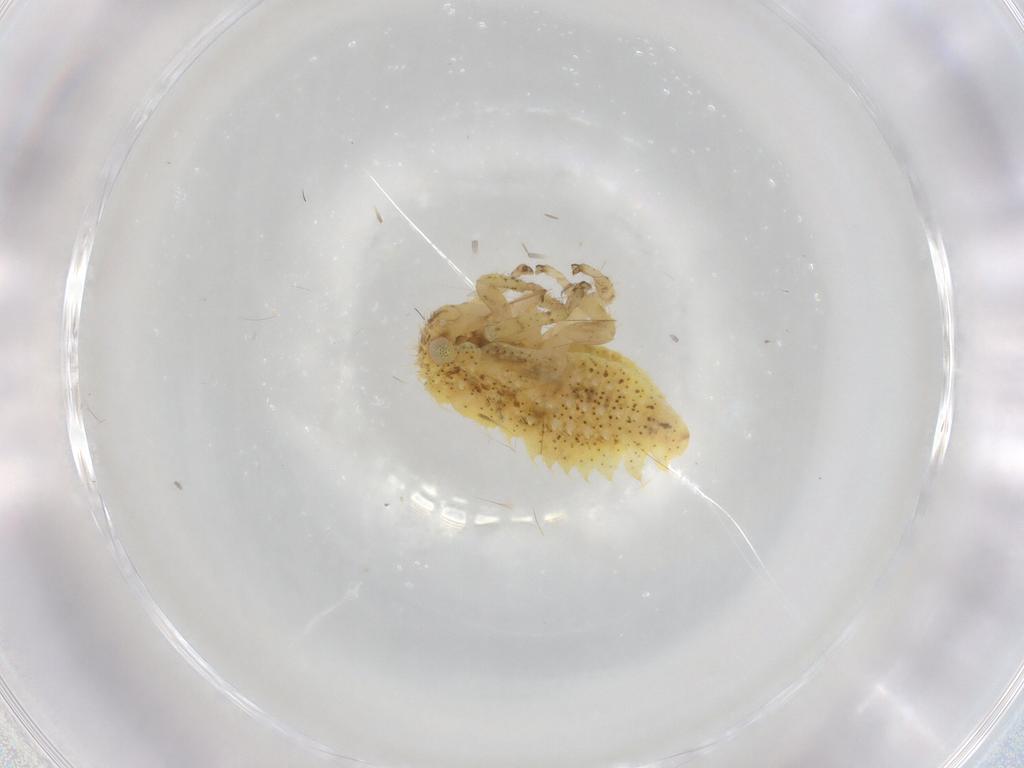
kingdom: Animalia
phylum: Arthropoda
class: Insecta
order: Hemiptera
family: Cicadellidae
